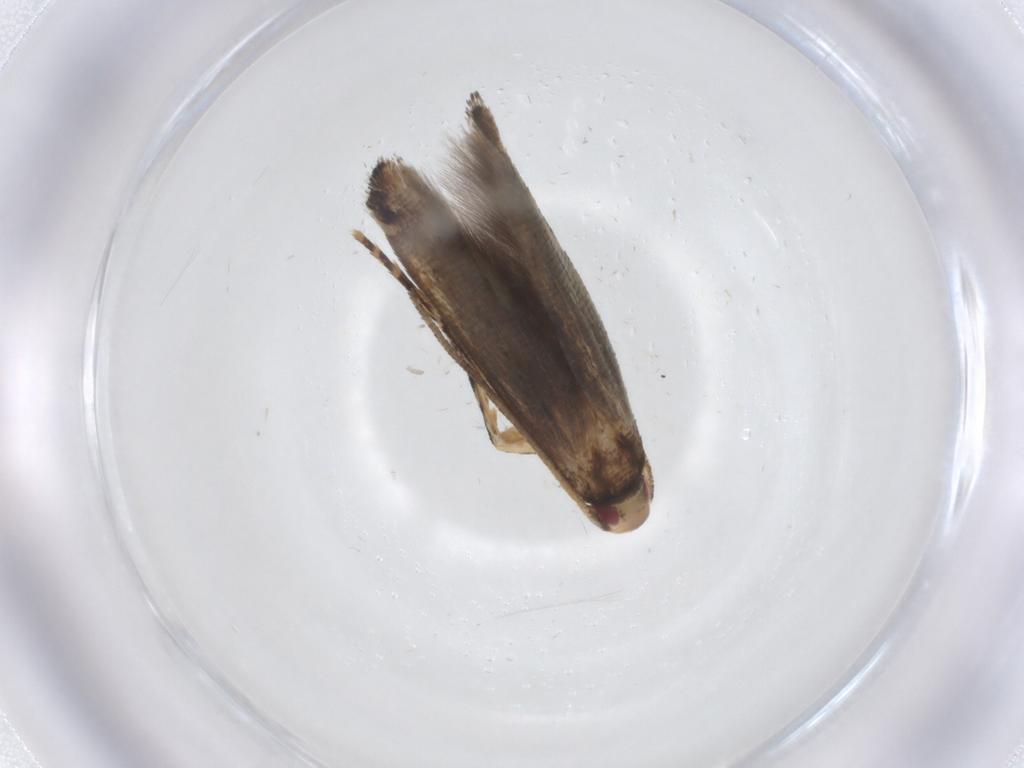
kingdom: Animalia
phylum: Arthropoda
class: Insecta
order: Lepidoptera
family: Momphidae
